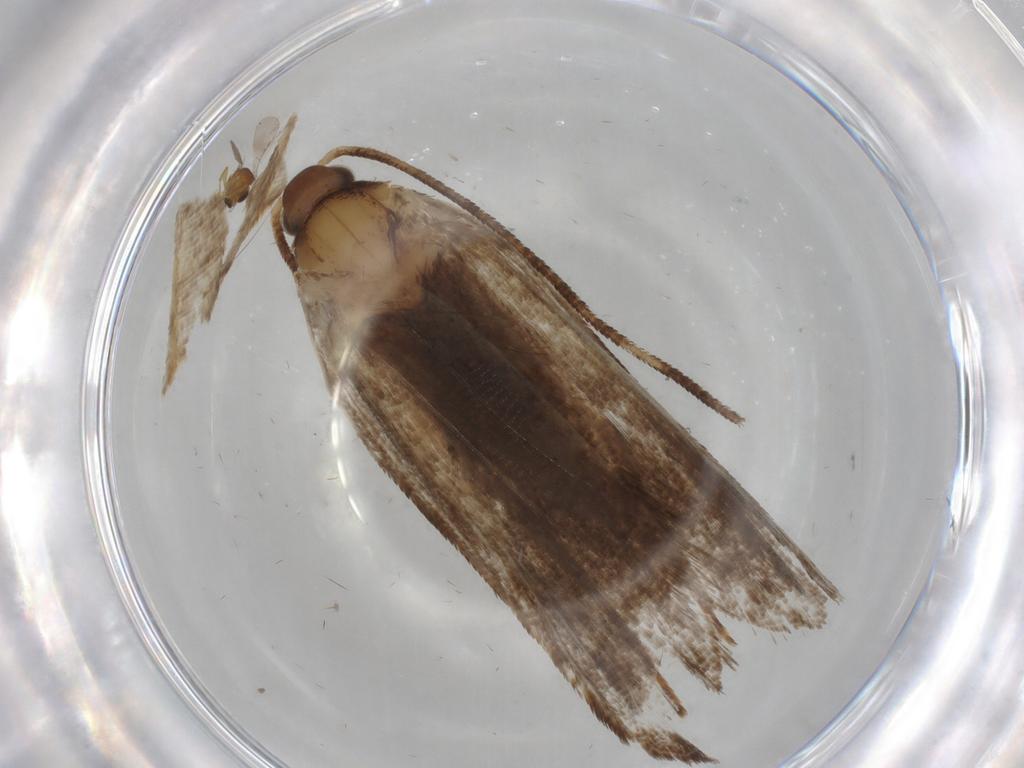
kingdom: Animalia
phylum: Arthropoda
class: Insecta
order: Lepidoptera
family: Oecophoridae
